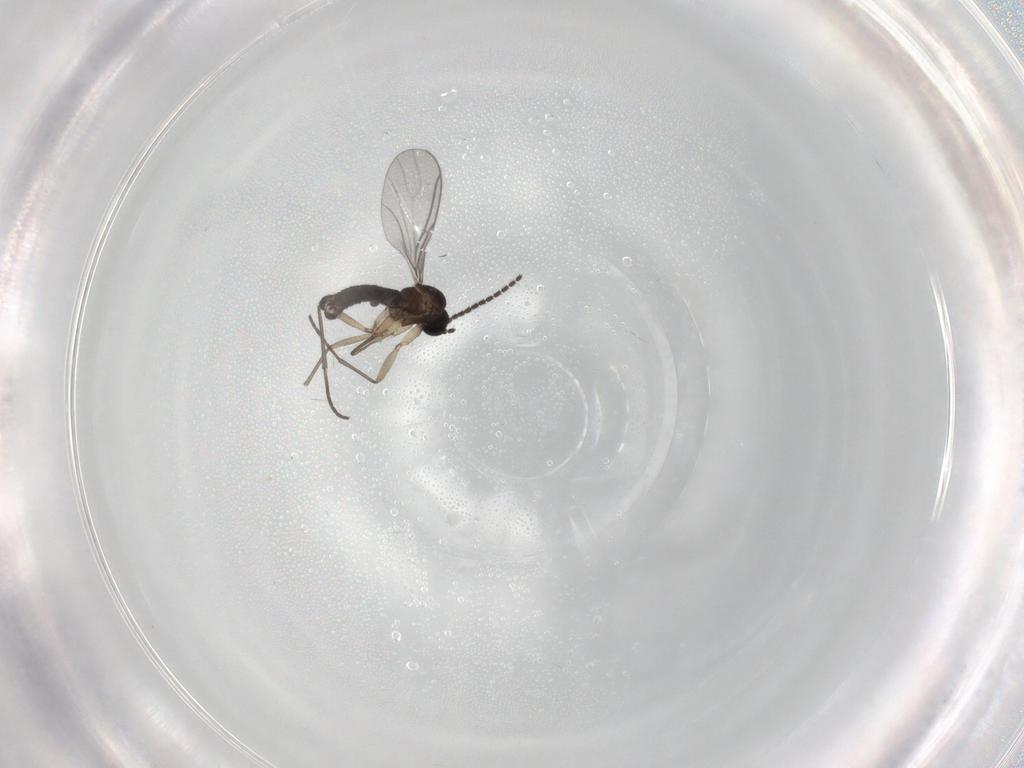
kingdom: Animalia
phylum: Arthropoda
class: Insecta
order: Diptera
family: Sciaridae
